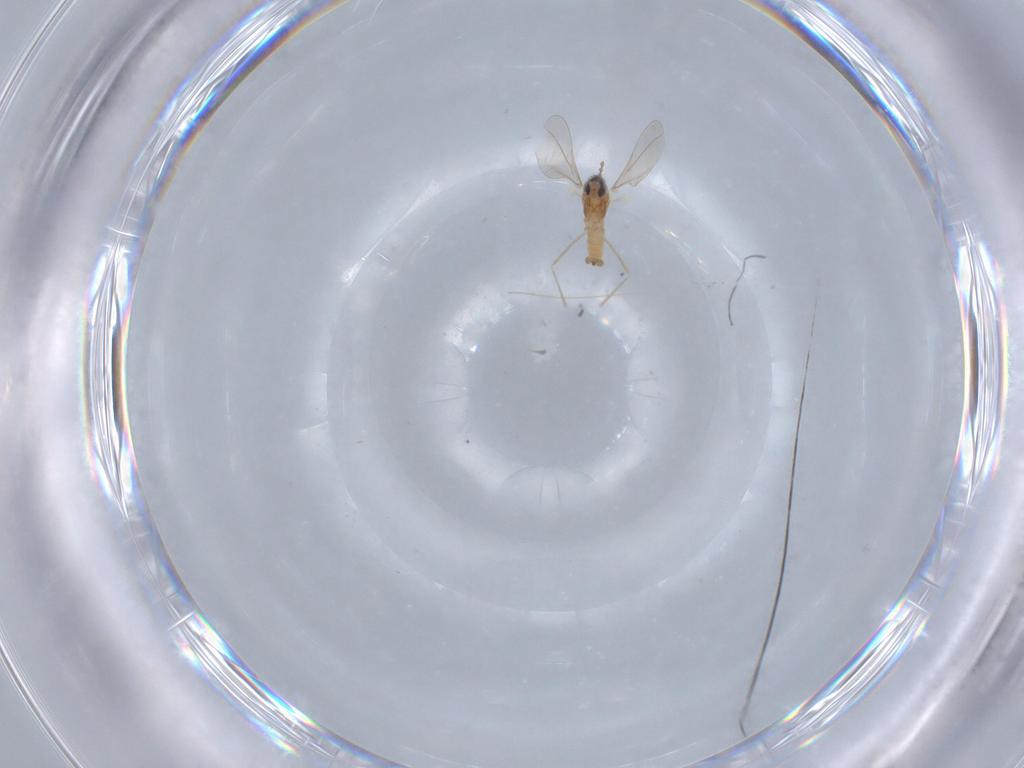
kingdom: Animalia
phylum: Arthropoda
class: Insecta
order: Diptera
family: Cecidomyiidae
